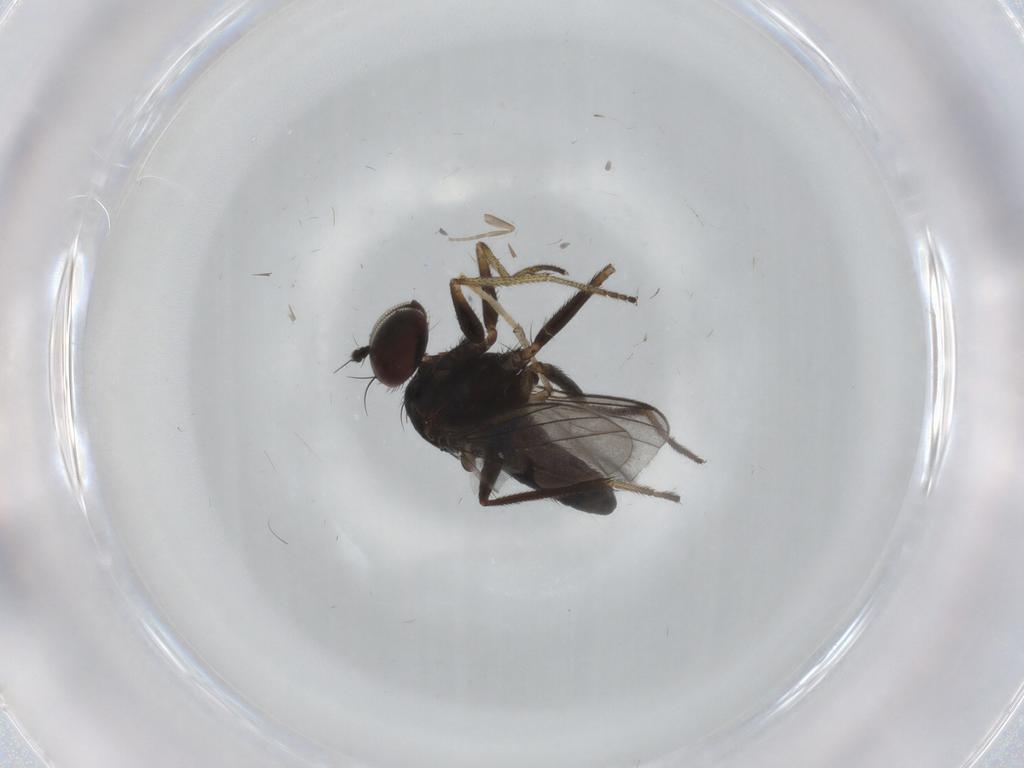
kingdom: Animalia
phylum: Arthropoda
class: Insecta
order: Diptera
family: Psychodidae
